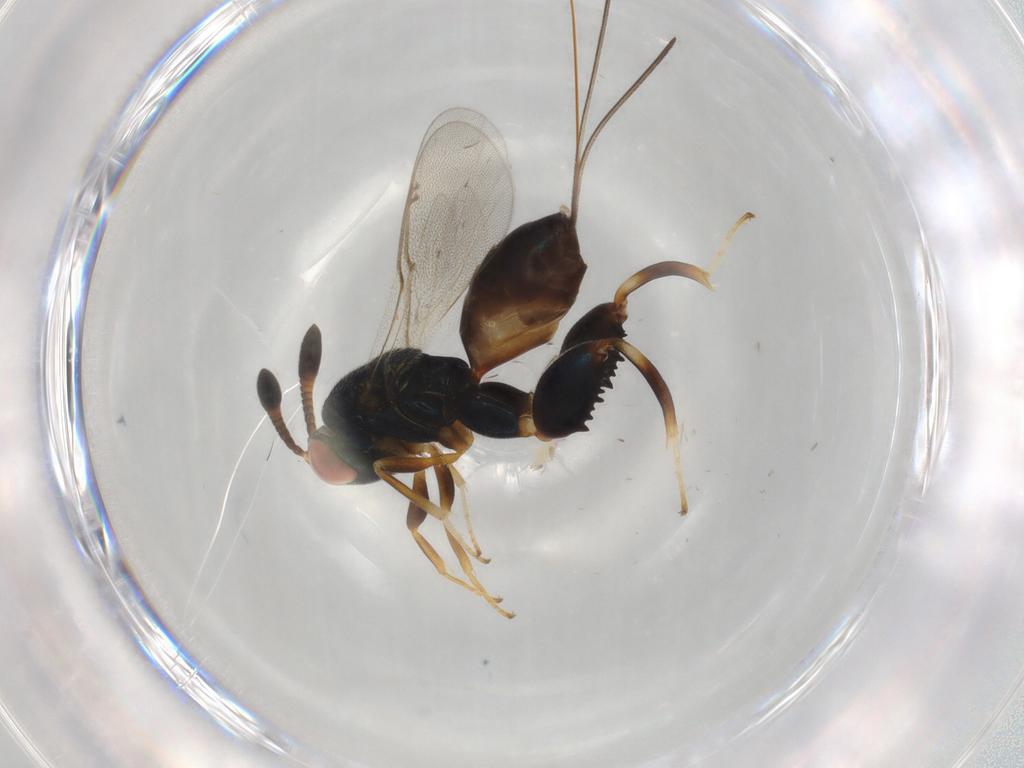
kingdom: Animalia
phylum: Arthropoda
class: Insecta
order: Hymenoptera
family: Torymidae
